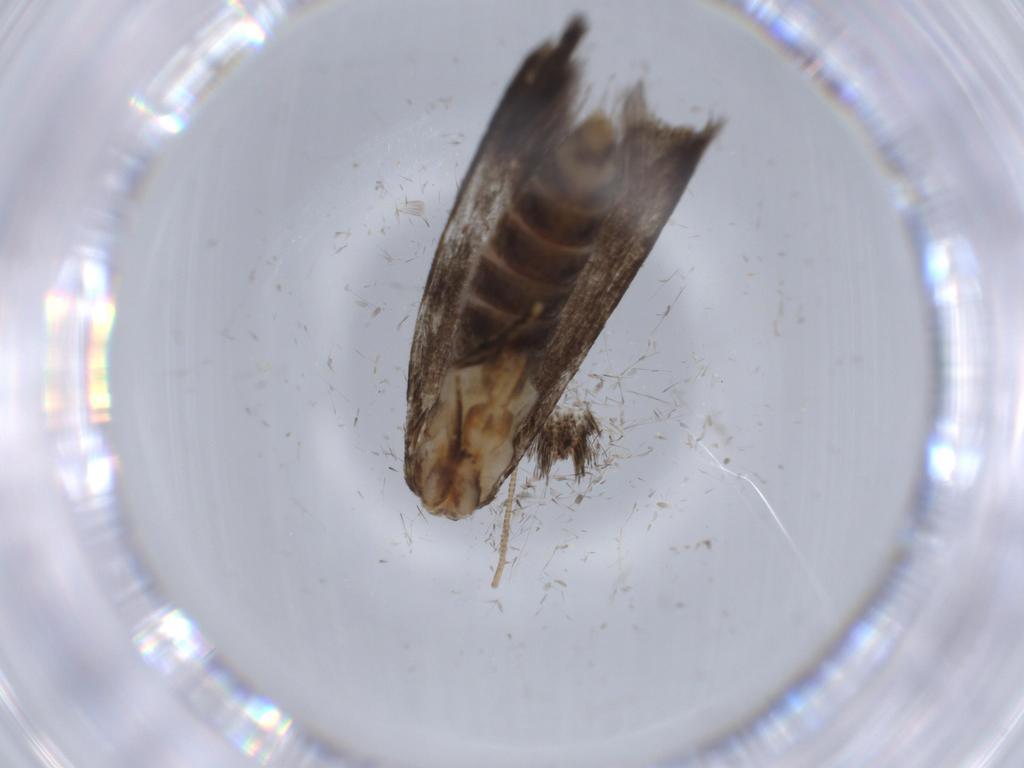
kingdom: Animalia
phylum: Arthropoda
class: Insecta
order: Lepidoptera
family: Tineidae
